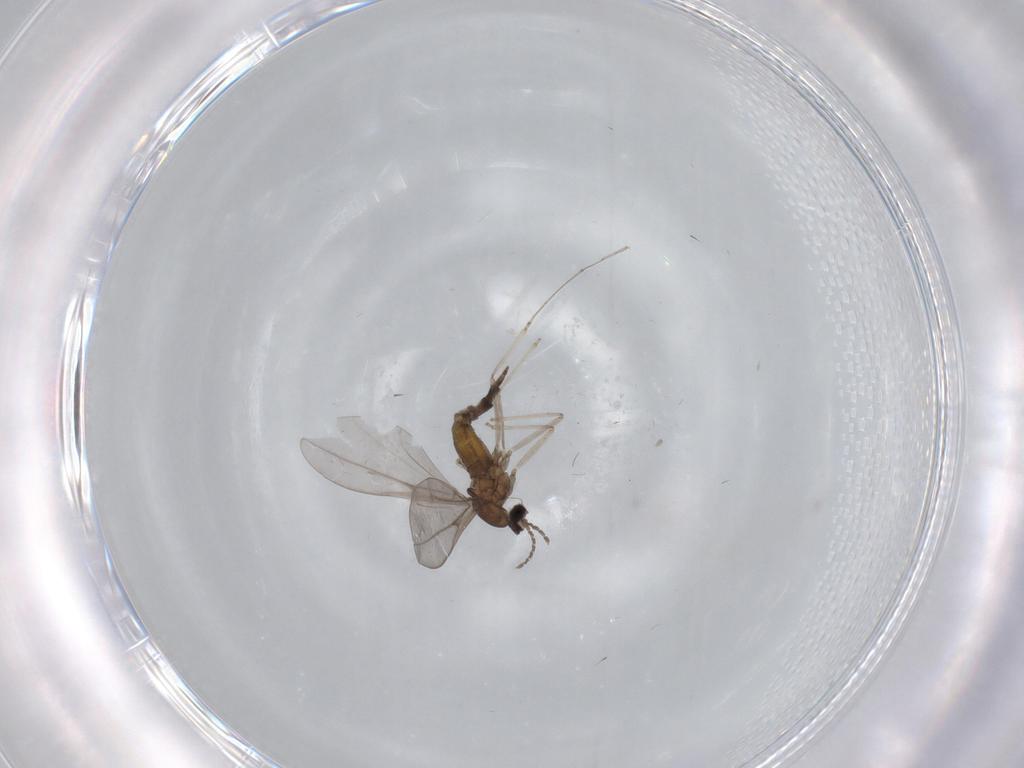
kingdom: Animalia
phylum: Arthropoda
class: Insecta
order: Diptera
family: Cecidomyiidae
